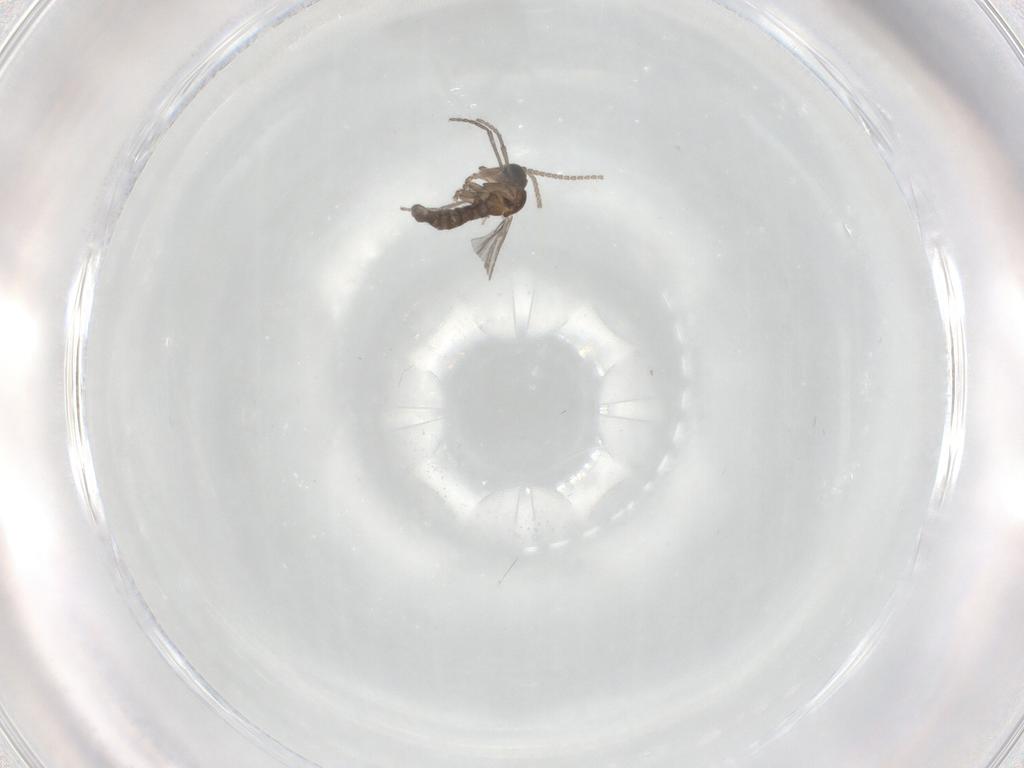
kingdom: Animalia
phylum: Arthropoda
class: Insecta
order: Diptera
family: Sciaridae
